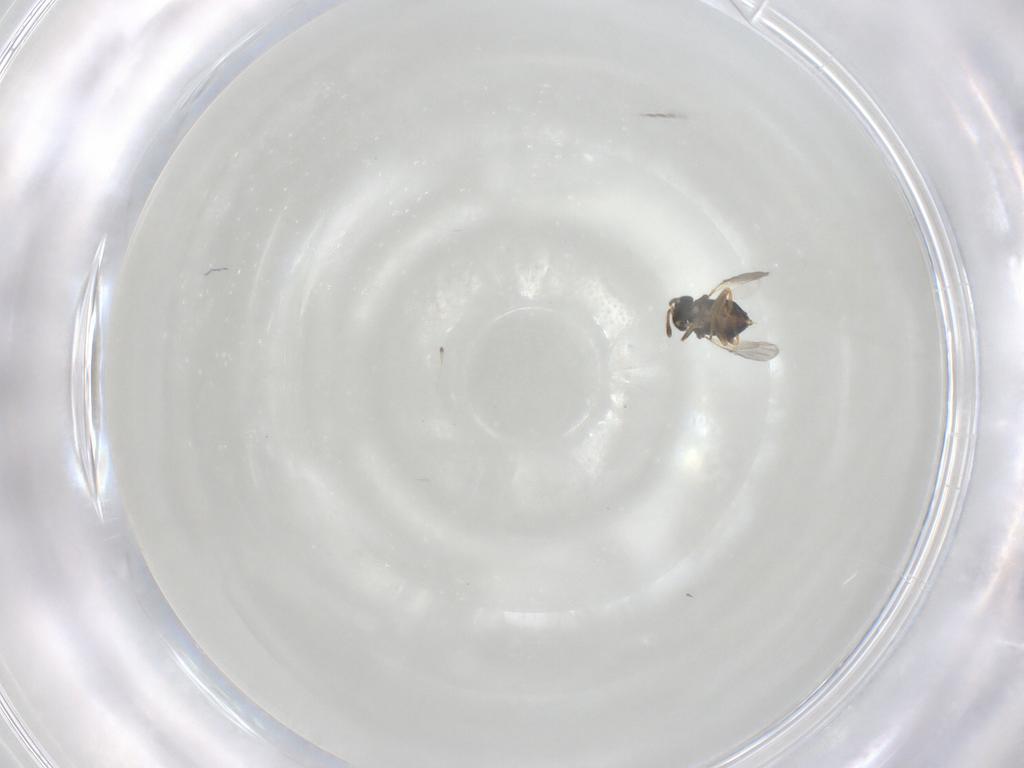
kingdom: Animalia
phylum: Arthropoda
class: Insecta
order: Hymenoptera
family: Encyrtidae
